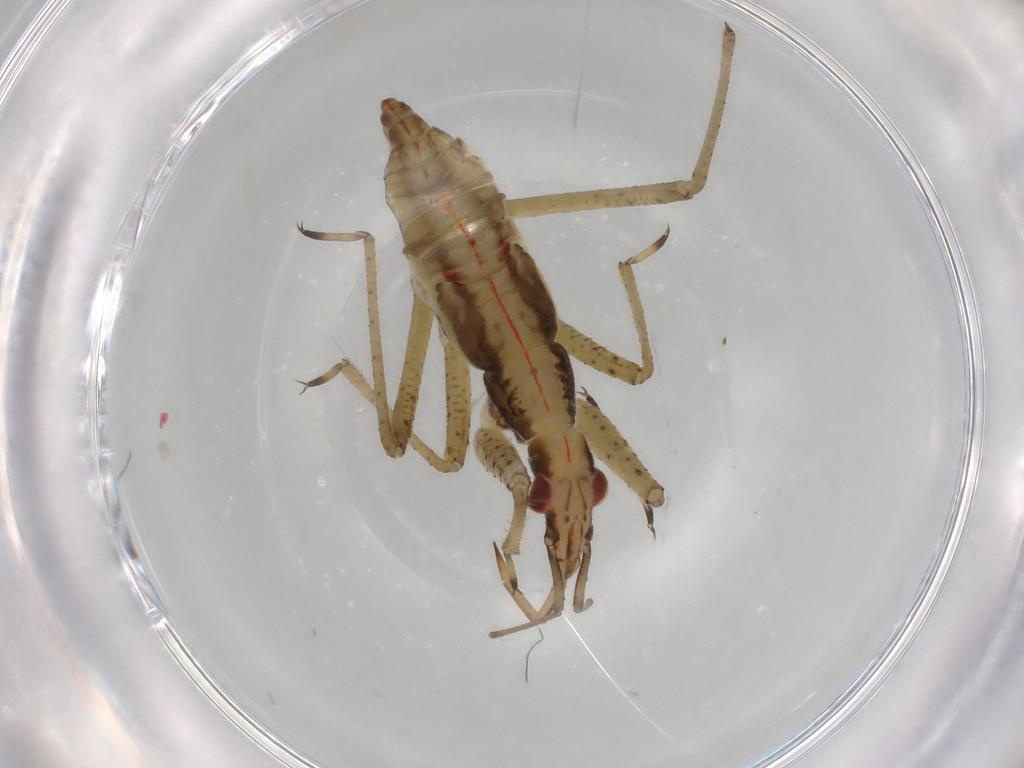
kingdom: Animalia
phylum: Arthropoda
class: Insecta
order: Hemiptera
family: Nabidae
